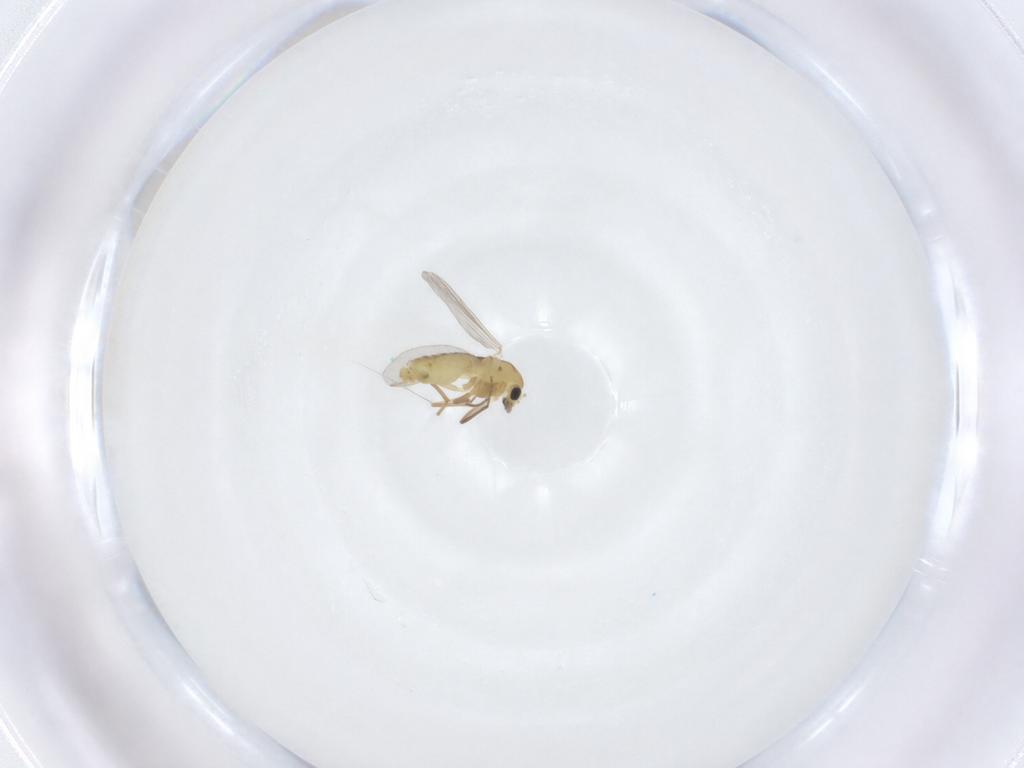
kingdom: Animalia
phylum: Arthropoda
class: Insecta
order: Diptera
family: Chironomidae
